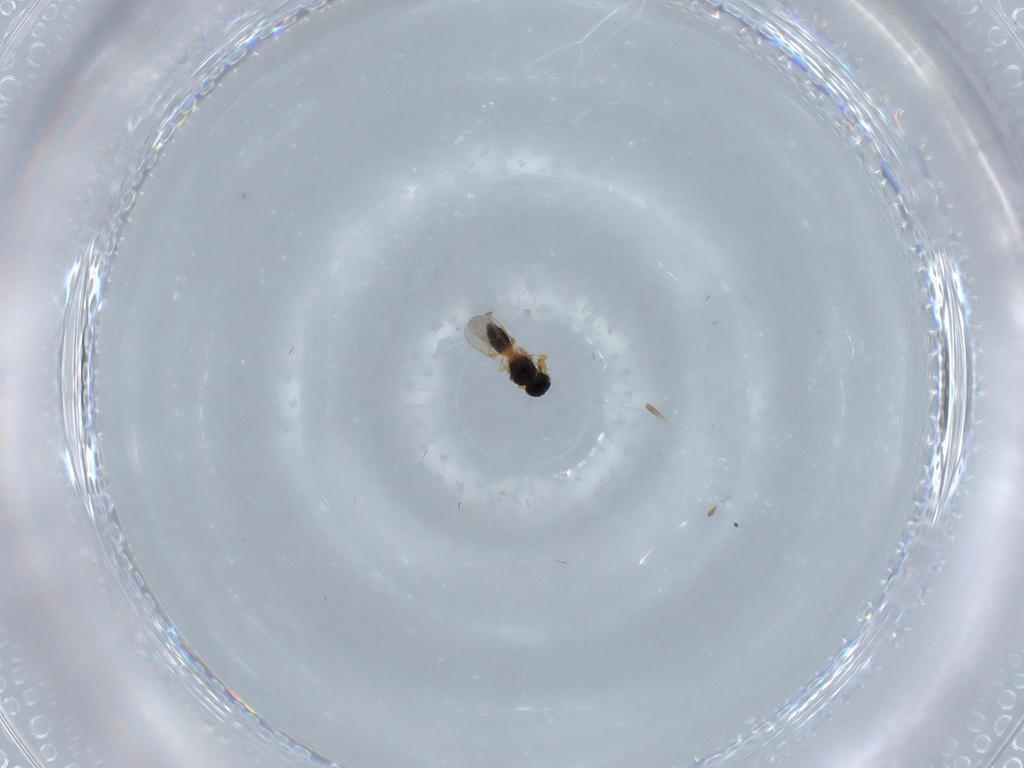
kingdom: Animalia
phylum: Arthropoda
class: Insecta
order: Hymenoptera
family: Platygastridae
